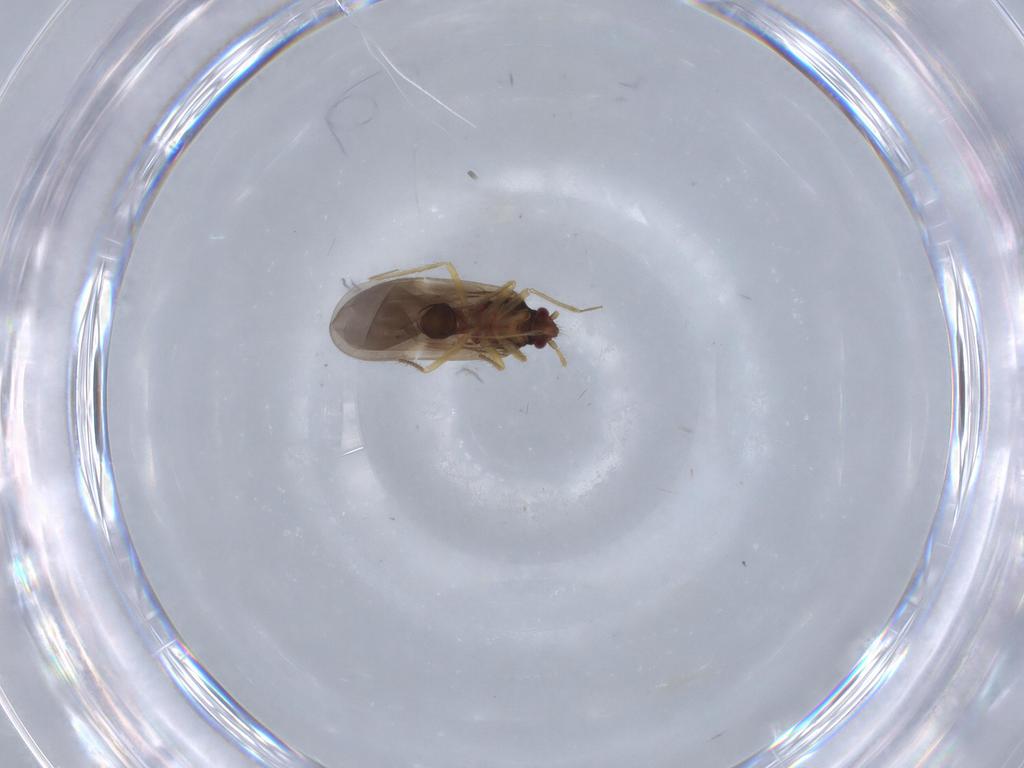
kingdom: Animalia
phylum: Arthropoda
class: Insecta
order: Hemiptera
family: Ceratocombidae
